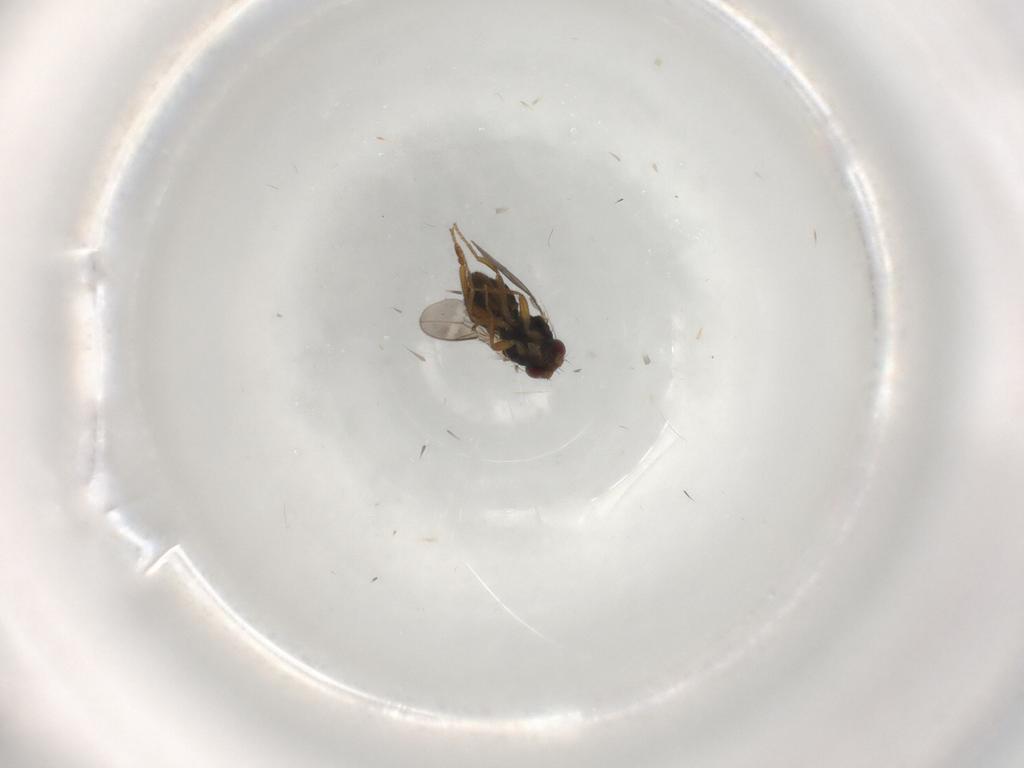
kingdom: Animalia
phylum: Arthropoda
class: Insecta
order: Diptera
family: Sphaeroceridae
